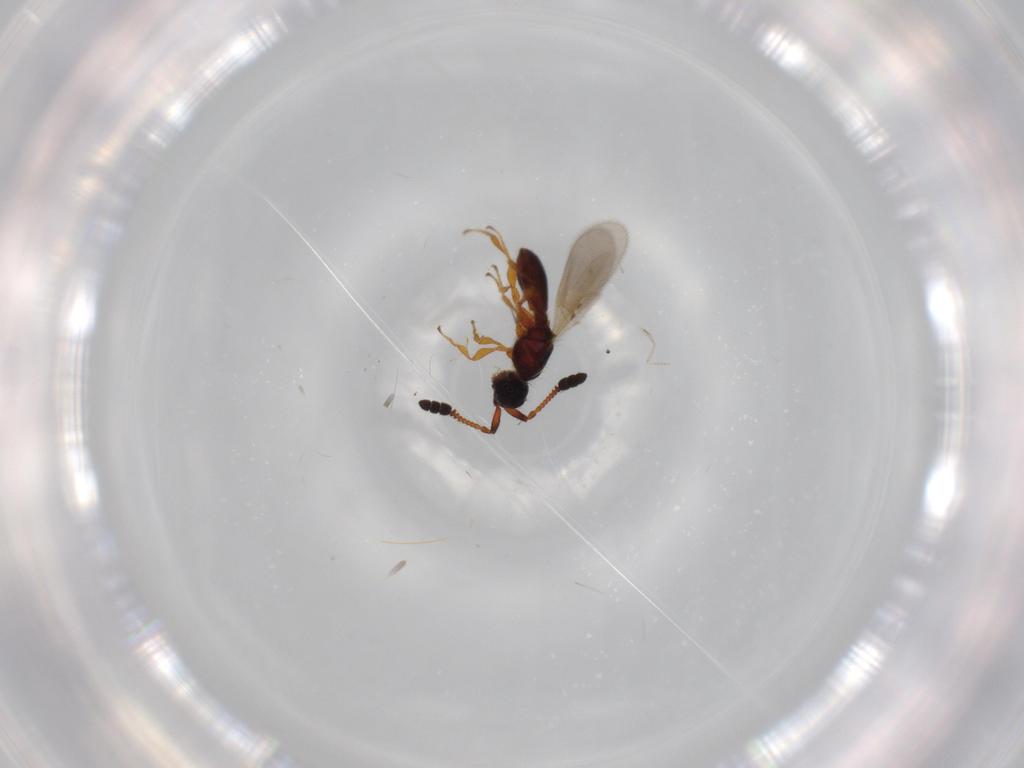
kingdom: Animalia
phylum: Arthropoda
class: Insecta
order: Hymenoptera
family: Diapriidae
